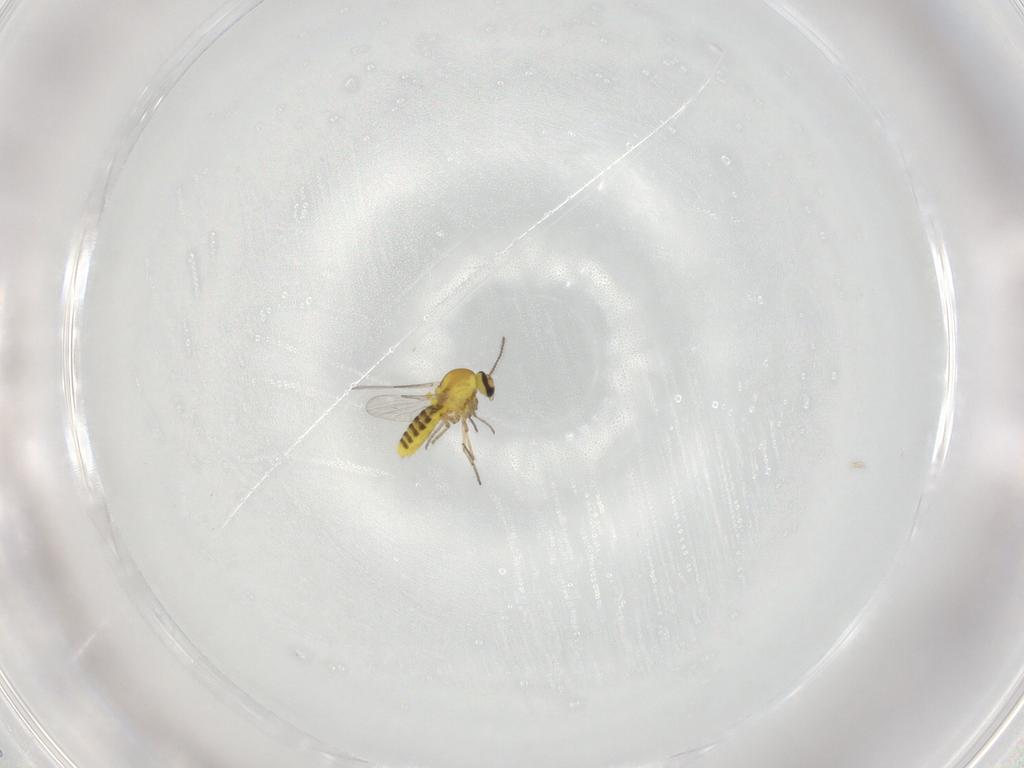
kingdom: Animalia
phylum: Arthropoda
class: Insecta
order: Diptera
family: Ceratopogonidae
